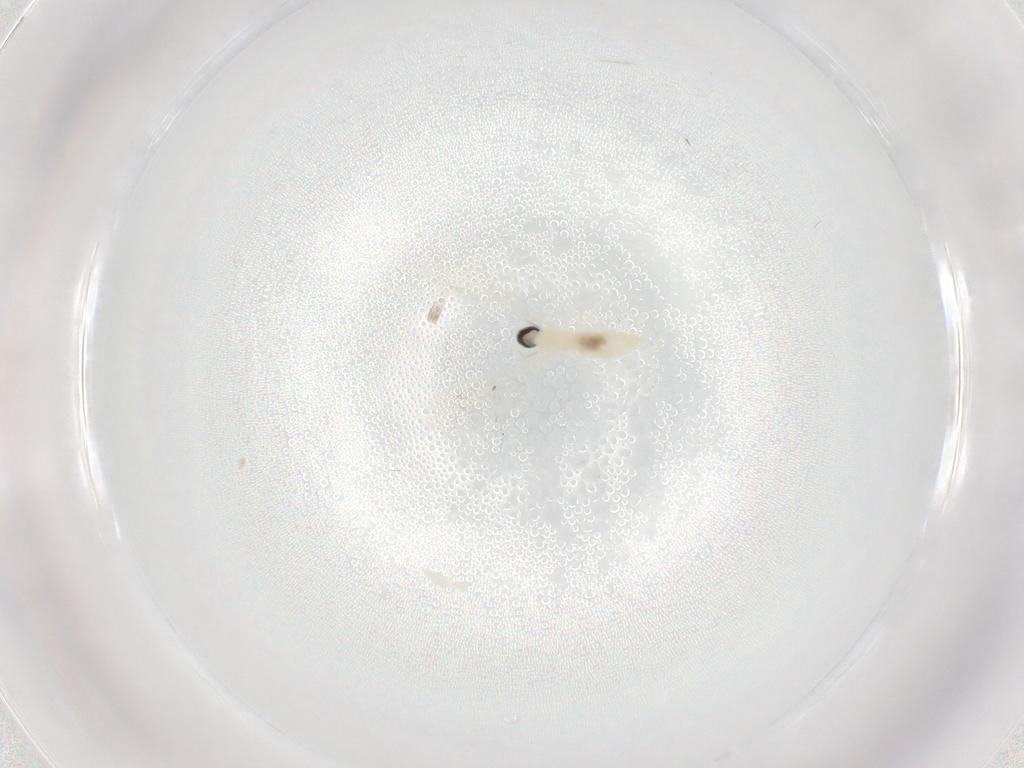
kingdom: Animalia
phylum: Arthropoda
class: Insecta
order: Diptera
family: Cecidomyiidae
